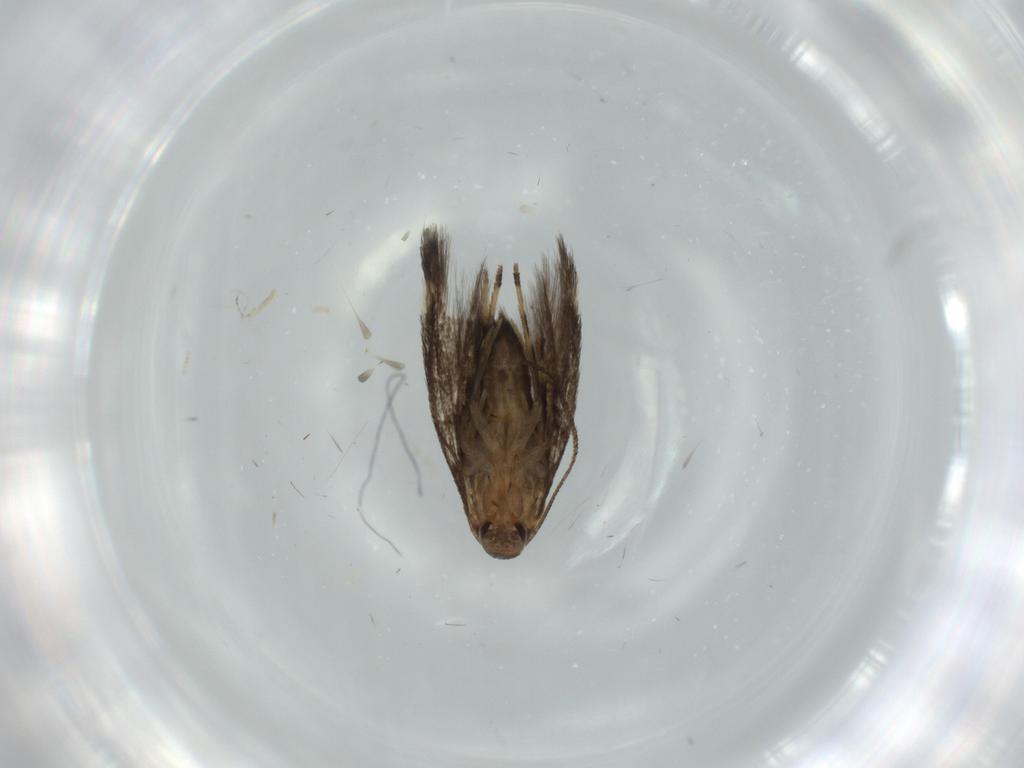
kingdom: Animalia
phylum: Arthropoda
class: Insecta
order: Lepidoptera
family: Cosmopterigidae
